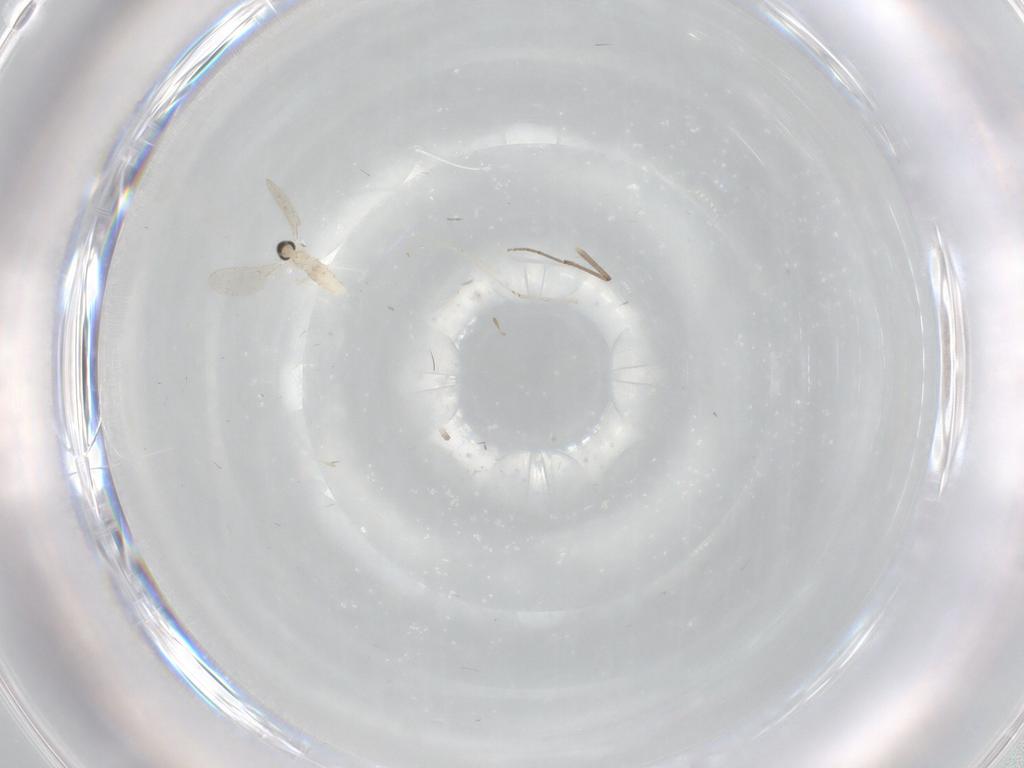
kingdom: Animalia
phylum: Arthropoda
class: Insecta
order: Diptera
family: Cecidomyiidae
